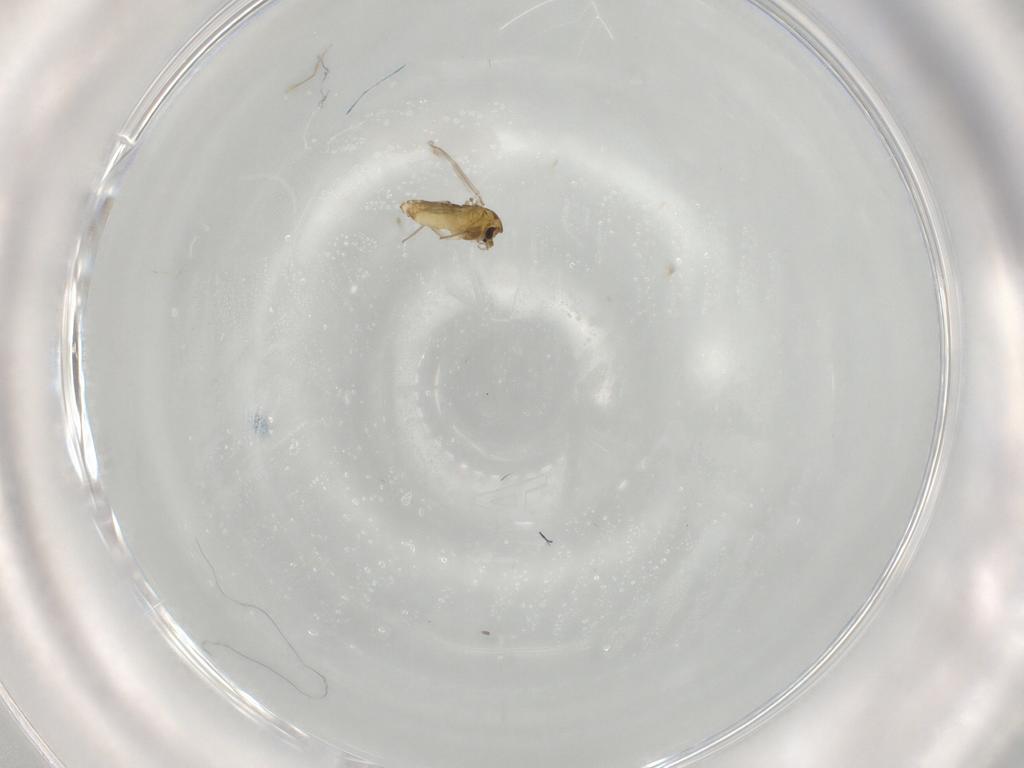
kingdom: Animalia
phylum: Arthropoda
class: Insecta
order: Diptera
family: Chironomidae
